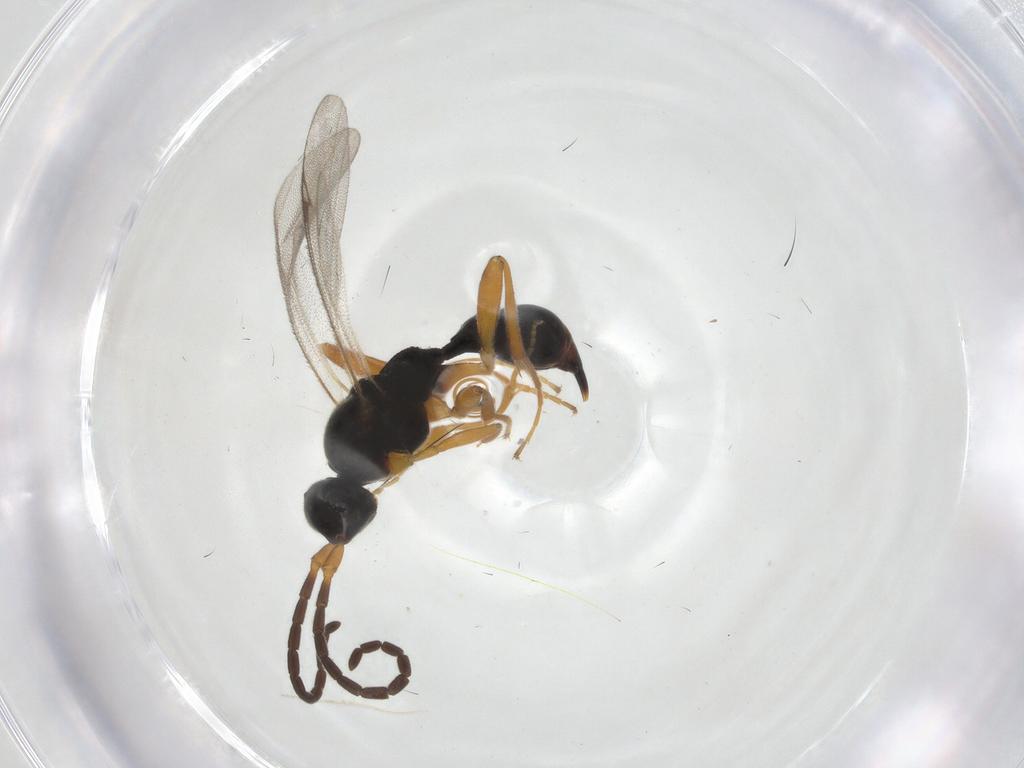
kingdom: Animalia
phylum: Arthropoda
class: Insecta
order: Hymenoptera
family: Proctotrupidae
